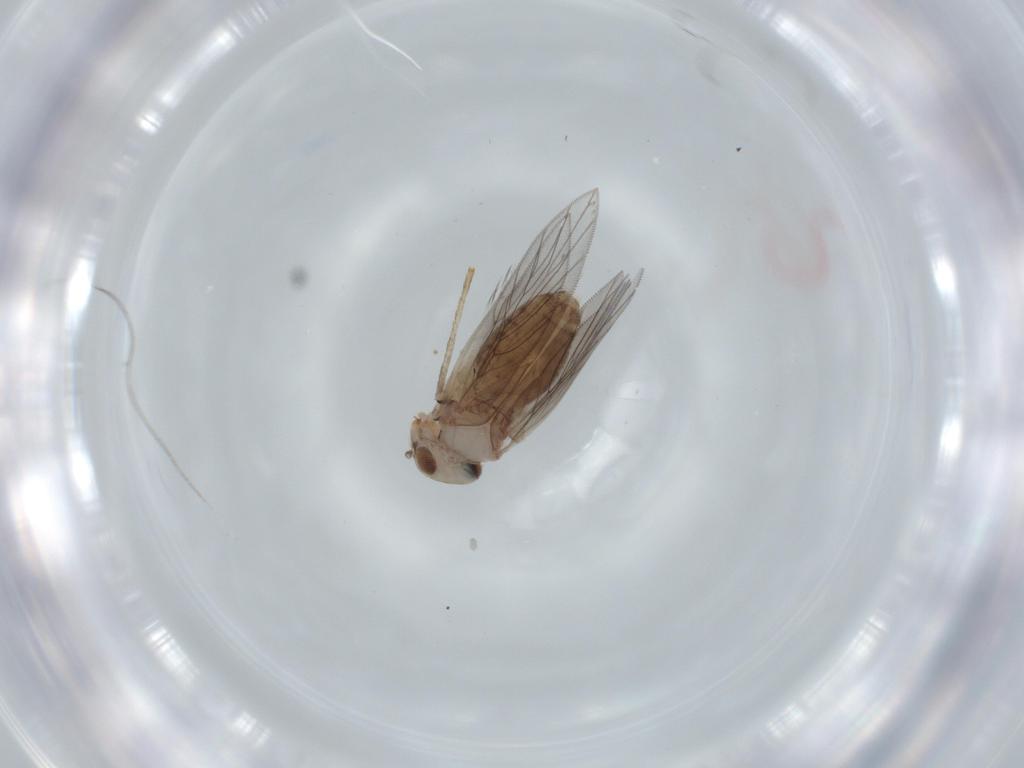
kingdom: Animalia
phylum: Arthropoda
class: Insecta
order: Psocodea
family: Lepidopsocidae
